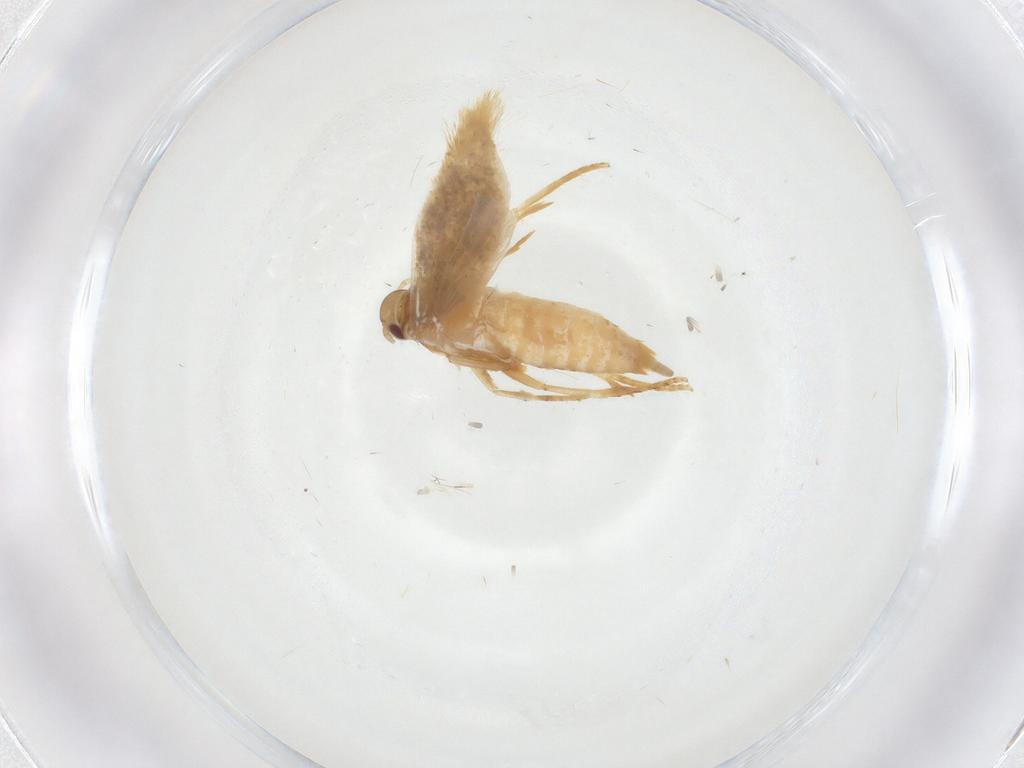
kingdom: Animalia
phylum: Arthropoda
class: Insecta
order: Lepidoptera
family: Gelechiidae
